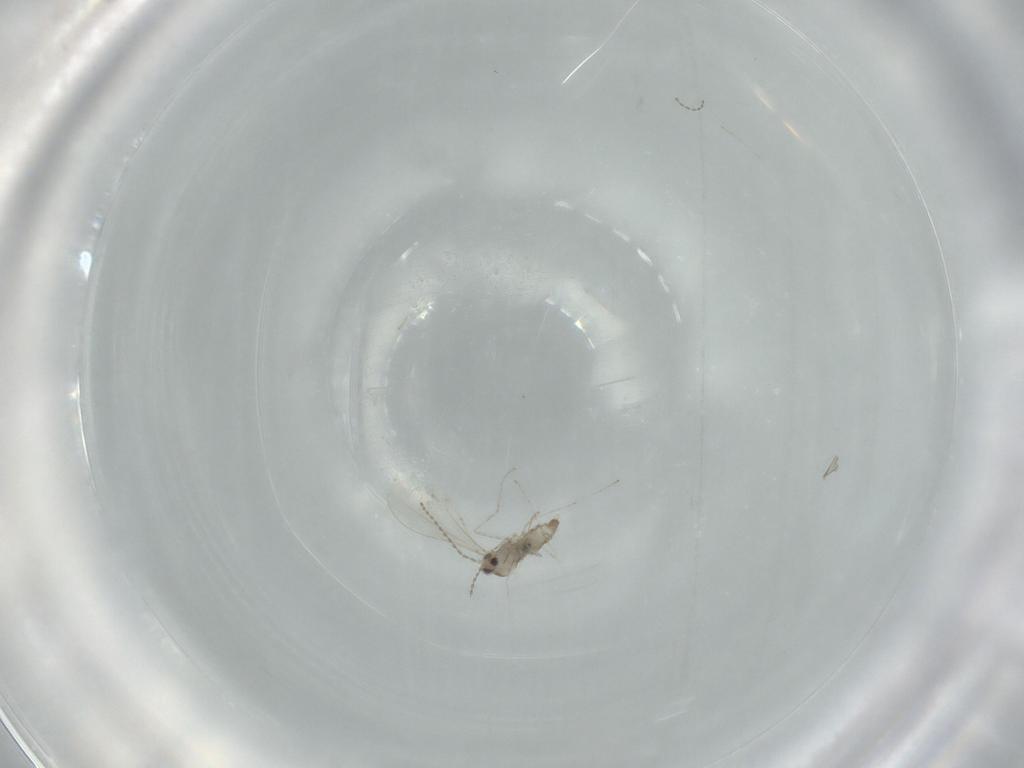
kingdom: Animalia
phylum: Arthropoda
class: Insecta
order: Diptera
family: Cecidomyiidae
